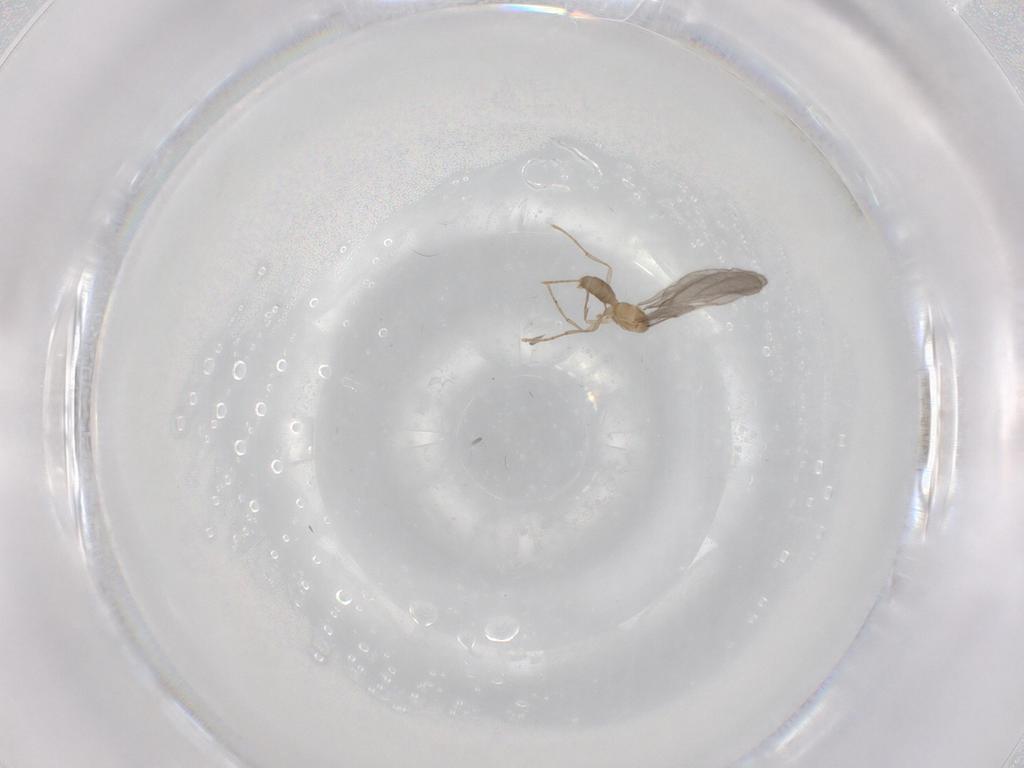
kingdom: Animalia
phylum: Arthropoda
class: Insecta
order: Hymenoptera
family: Formicidae
